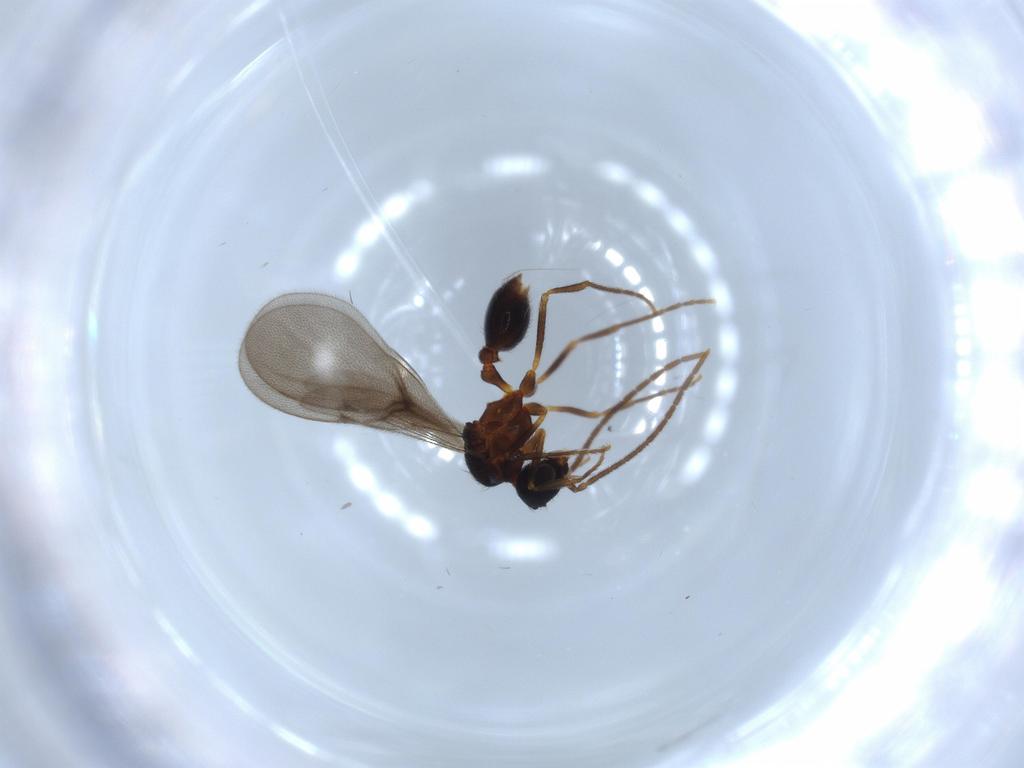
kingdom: Animalia
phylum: Arthropoda
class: Insecta
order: Hymenoptera
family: Formicidae
